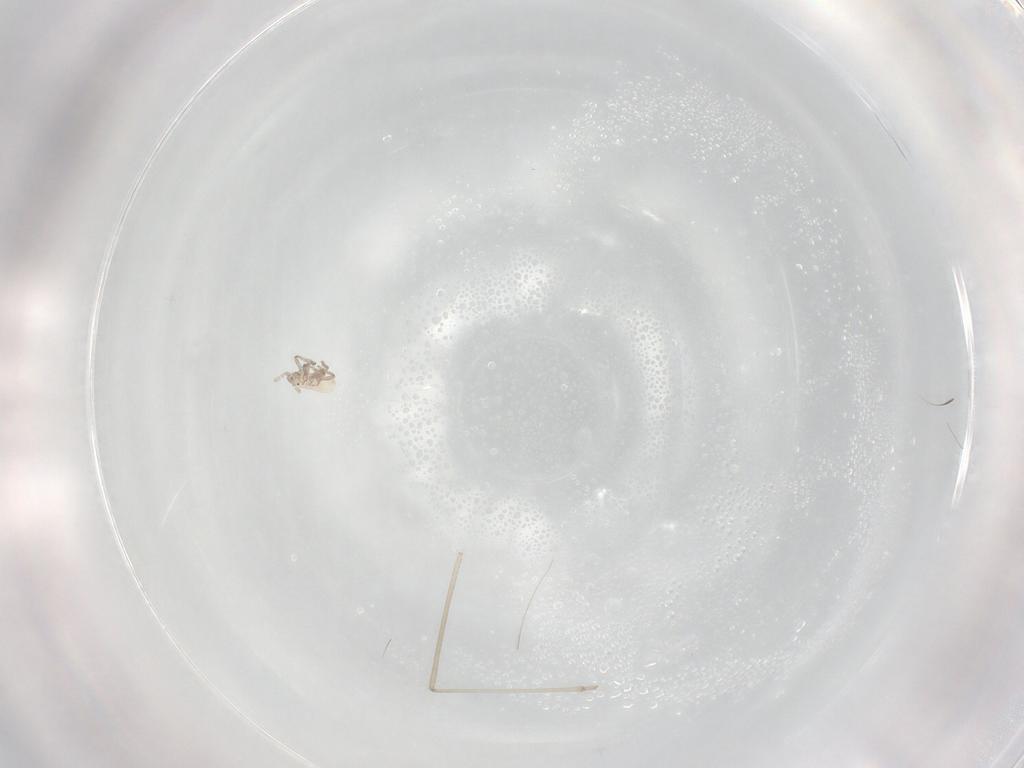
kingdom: Animalia
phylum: Arthropoda
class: Insecta
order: Hemiptera
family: Aphididae
